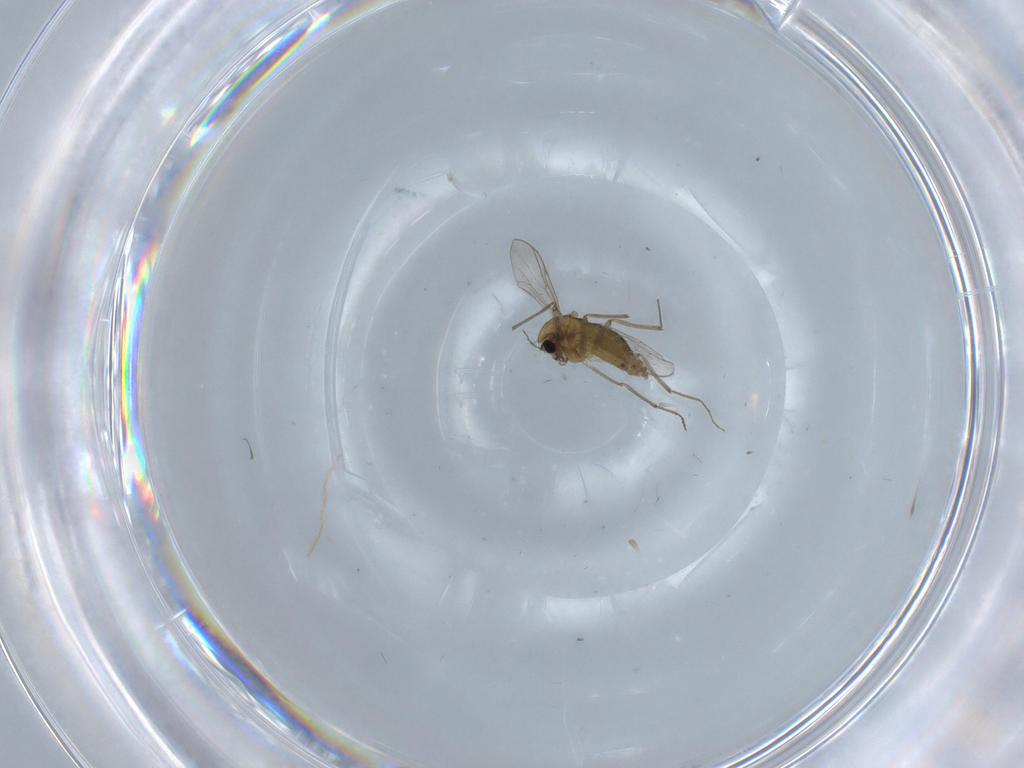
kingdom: Animalia
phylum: Arthropoda
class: Insecta
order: Diptera
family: Chironomidae
